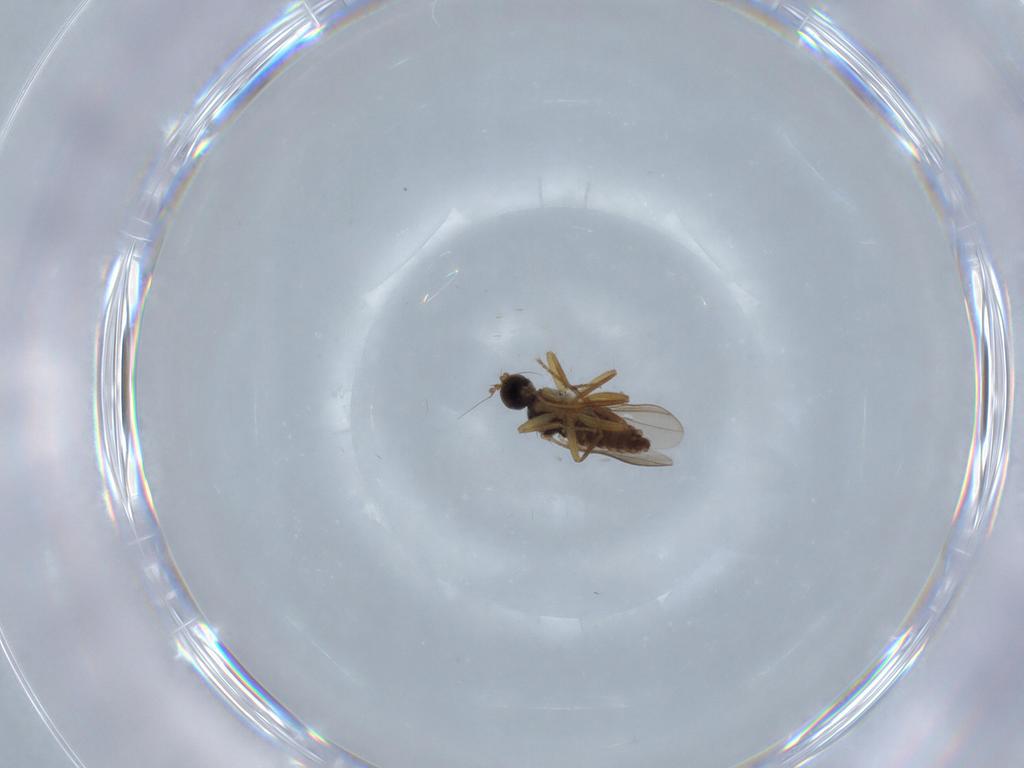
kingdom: Animalia
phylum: Arthropoda
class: Insecta
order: Diptera
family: Hybotidae
